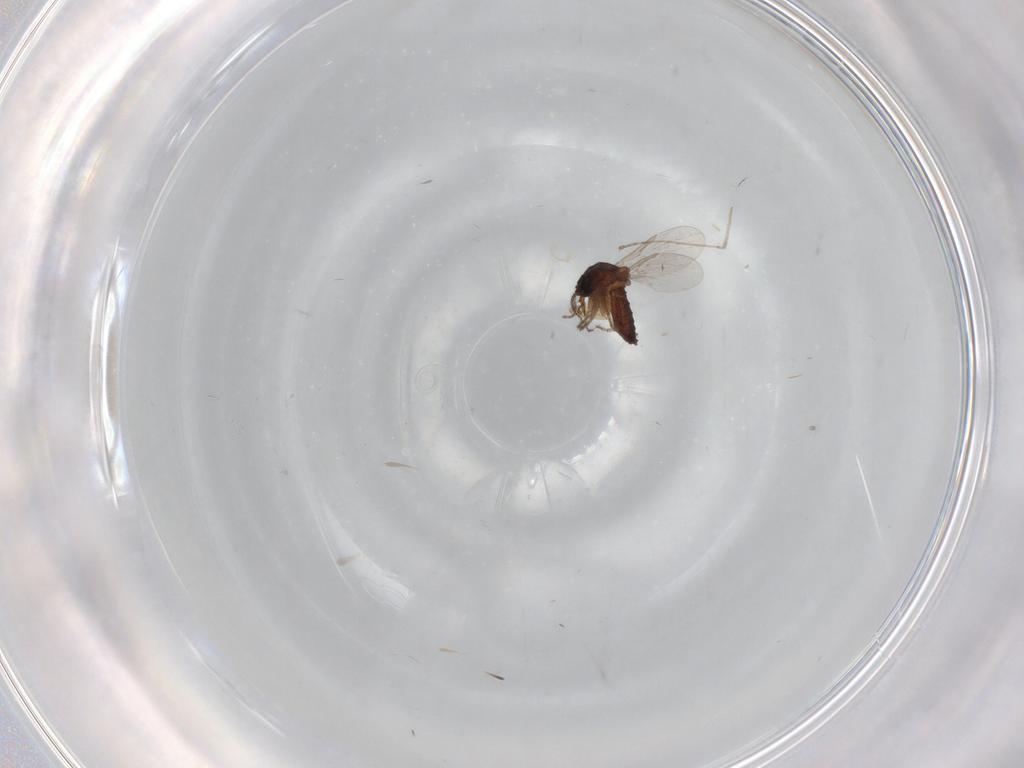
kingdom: Animalia
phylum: Arthropoda
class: Insecta
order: Diptera
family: Ceratopogonidae
